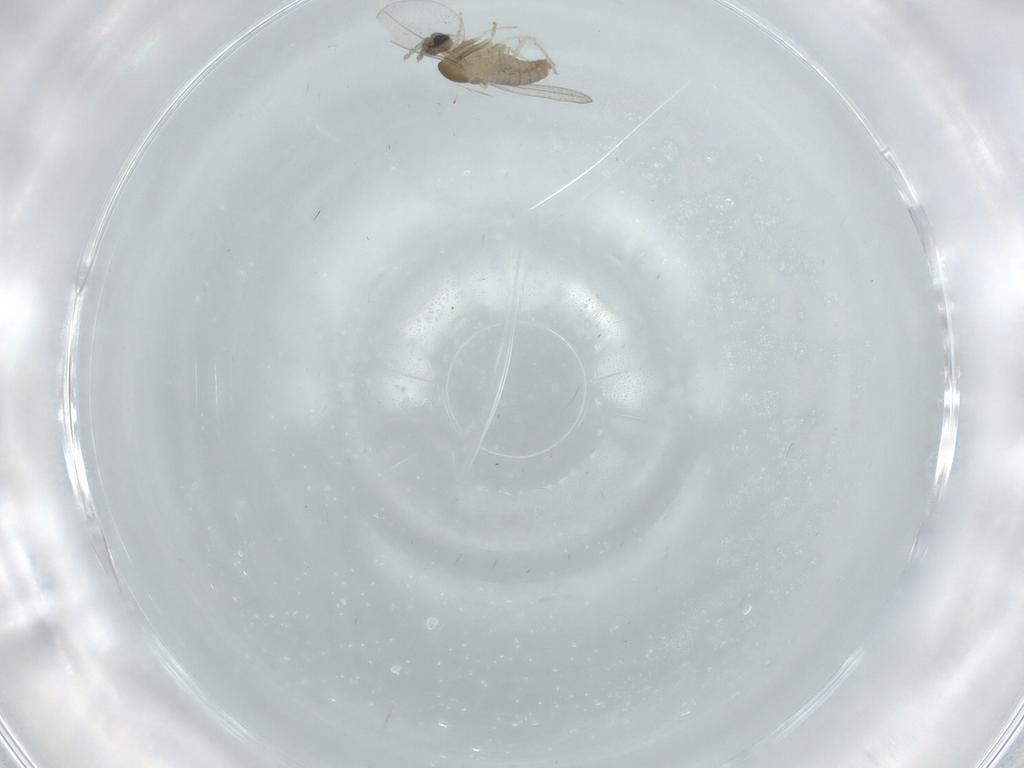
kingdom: Animalia
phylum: Arthropoda
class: Insecta
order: Diptera
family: Cecidomyiidae
